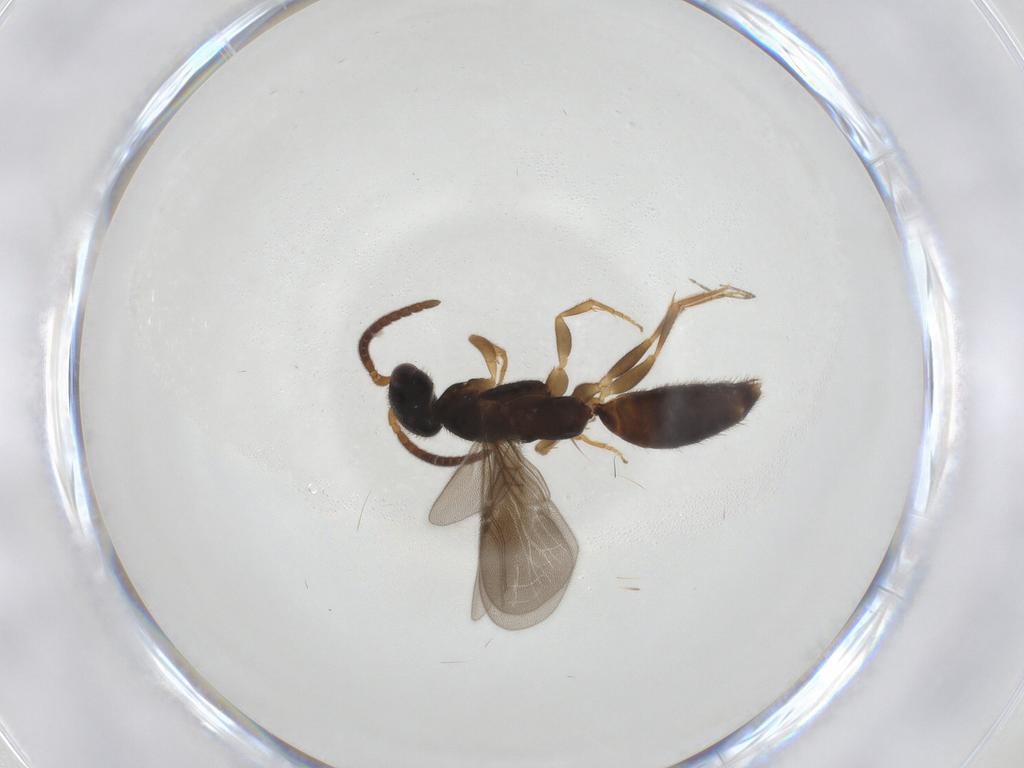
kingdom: Animalia
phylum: Arthropoda
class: Insecta
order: Hymenoptera
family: Bethylidae
